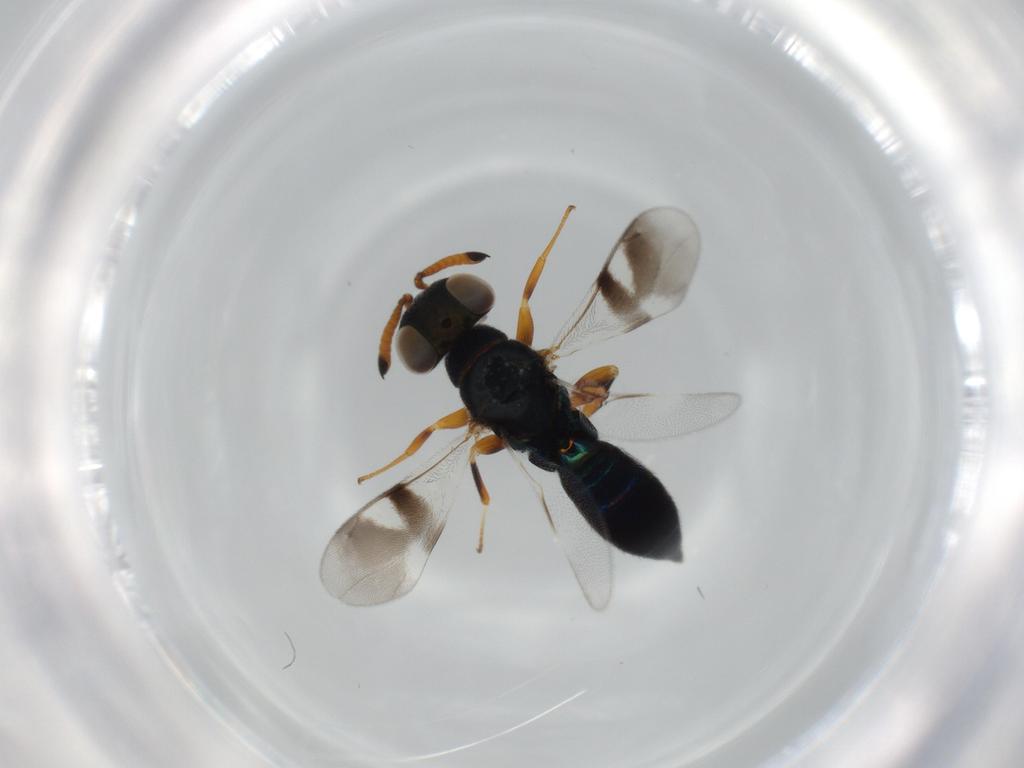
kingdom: Animalia
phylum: Arthropoda
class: Insecta
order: Hymenoptera
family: Cleonyminae
